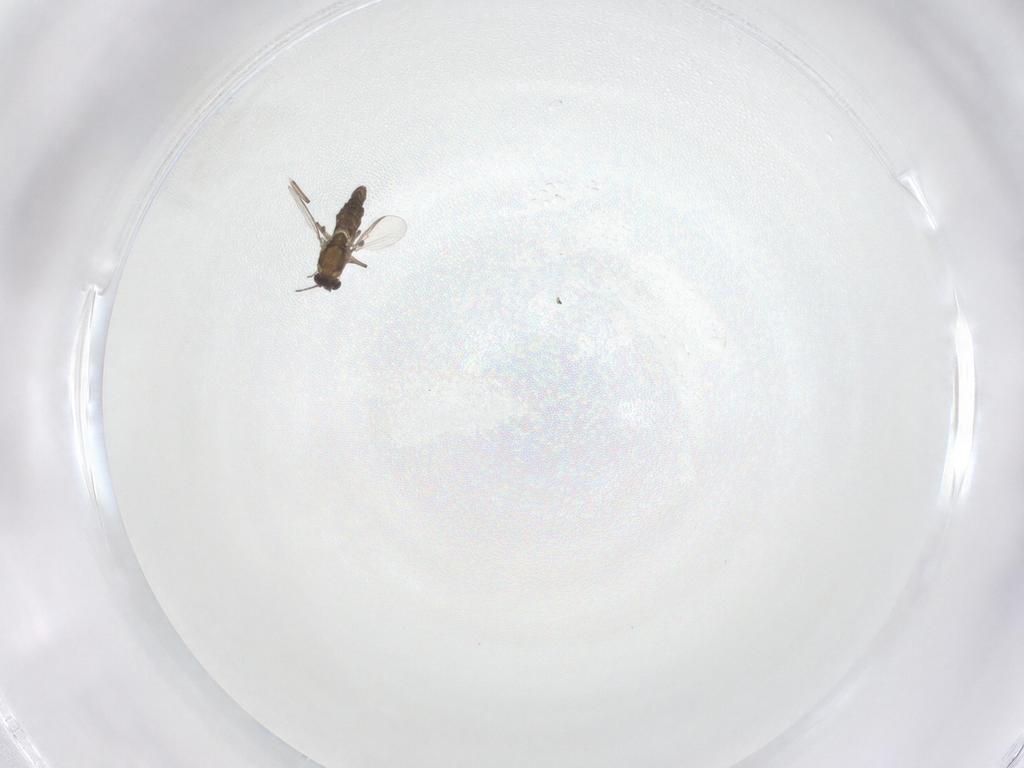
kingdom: Animalia
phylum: Arthropoda
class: Insecta
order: Diptera
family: Chironomidae
